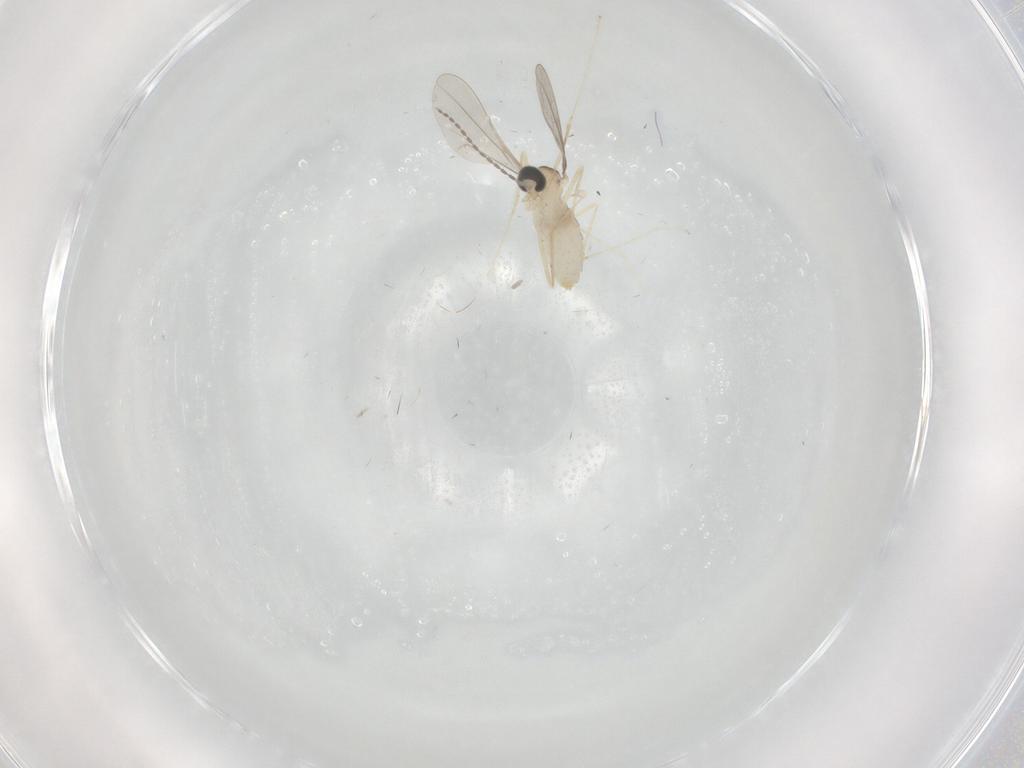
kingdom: Animalia
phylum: Arthropoda
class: Insecta
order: Diptera
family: Cecidomyiidae
